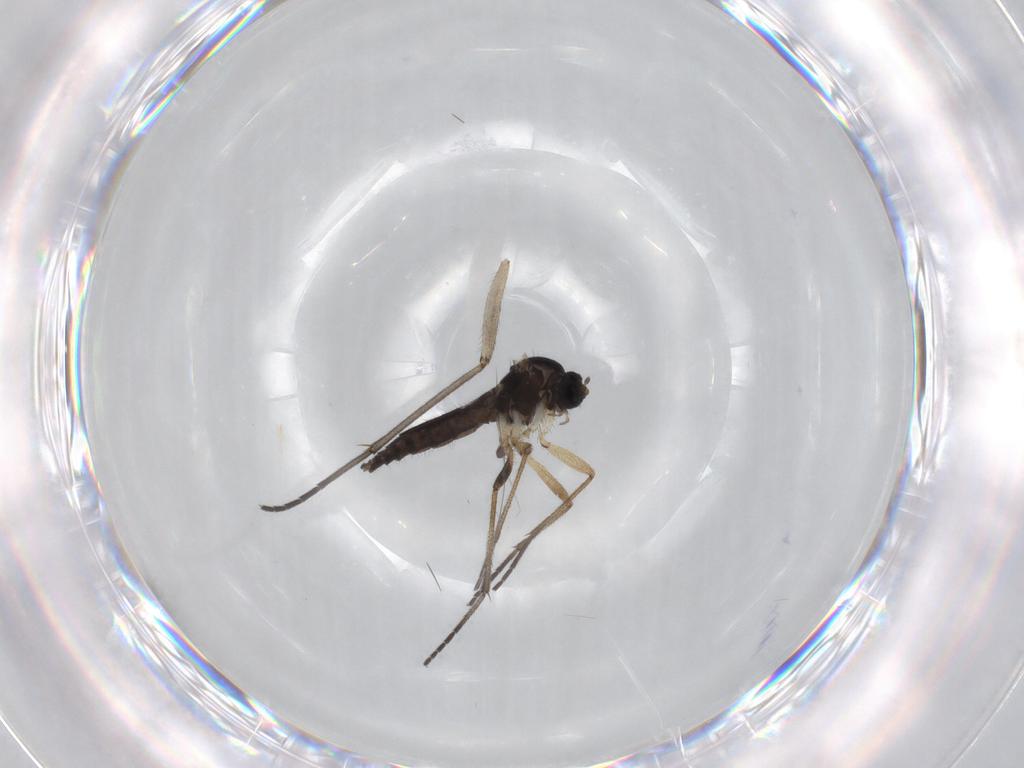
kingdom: Animalia
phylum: Arthropoda
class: Insecta
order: Diptera
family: Sciaridae
